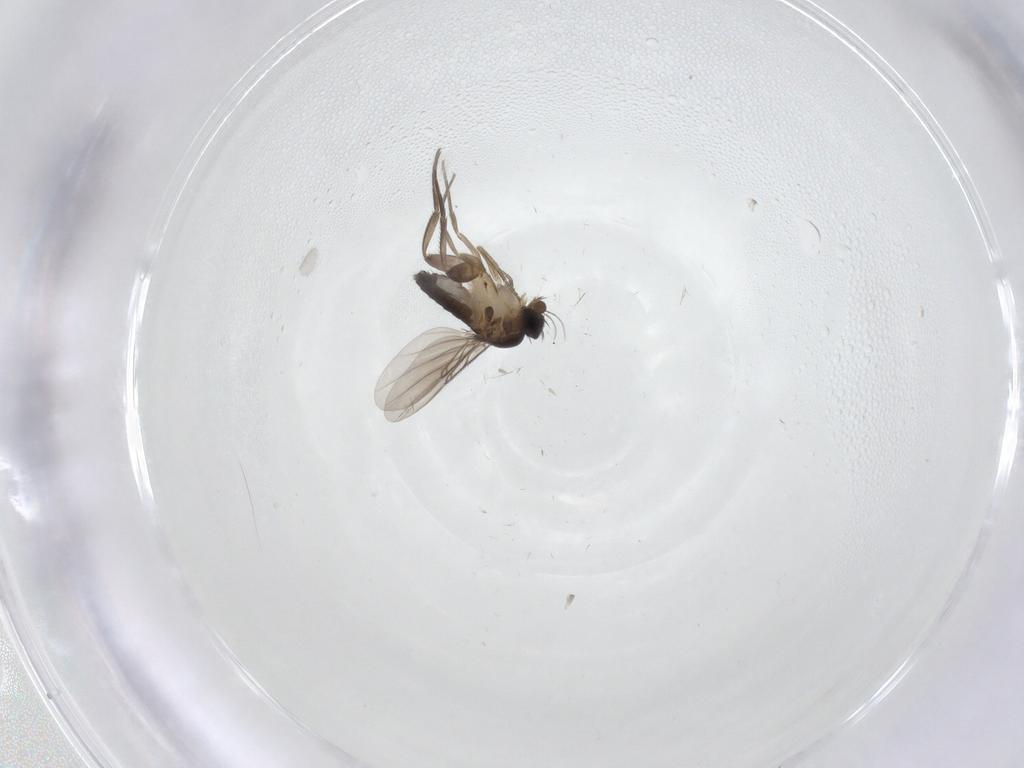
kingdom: Animalia
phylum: Arthropoda
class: Insecta
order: Diptera
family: Phoridae
